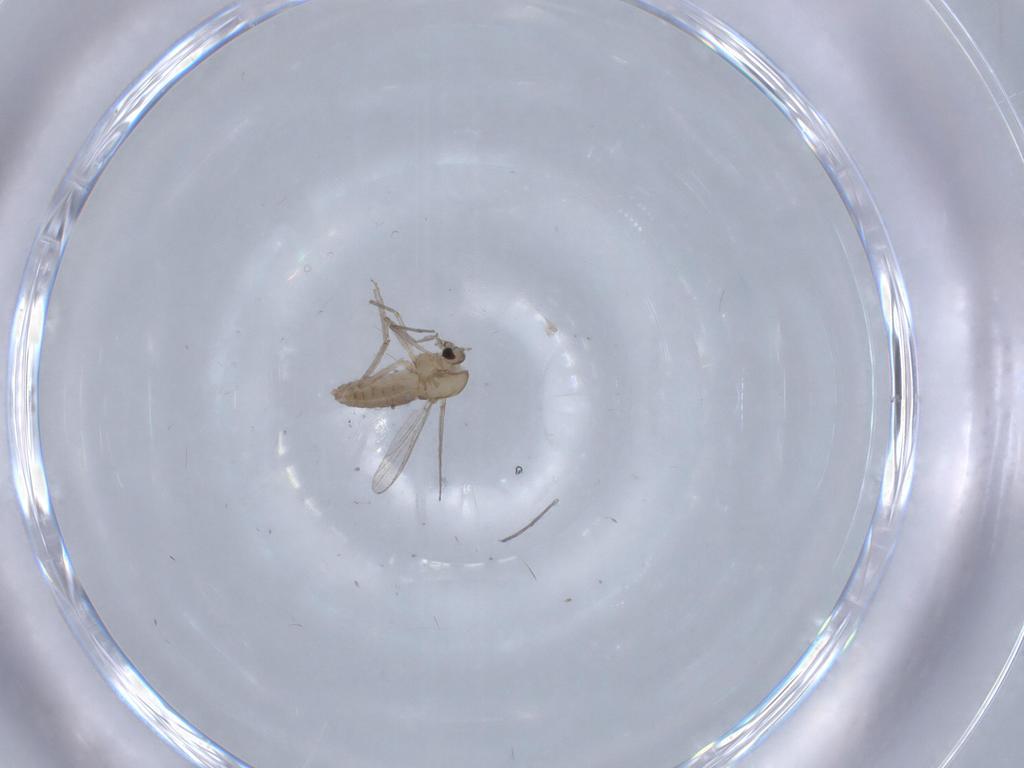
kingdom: Animalia
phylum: Arthropoda
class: Insecta
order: Diptera
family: Chironomidae
